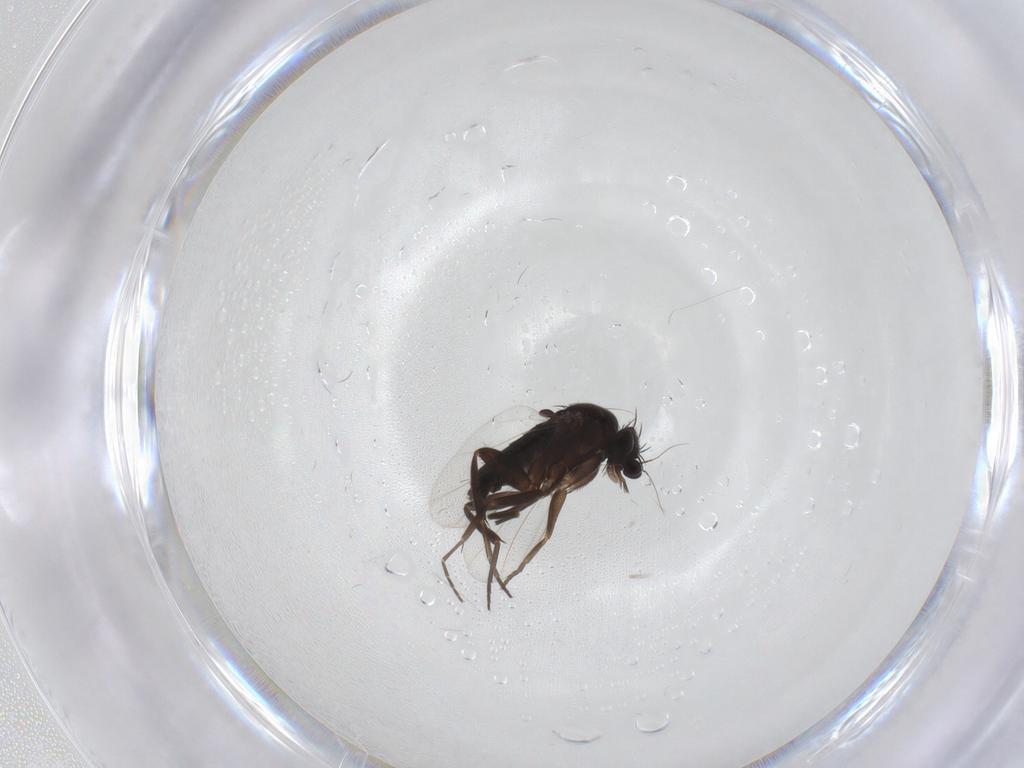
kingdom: Animalia
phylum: Arthropoda
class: Insecta
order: Diptera
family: Phoridae
